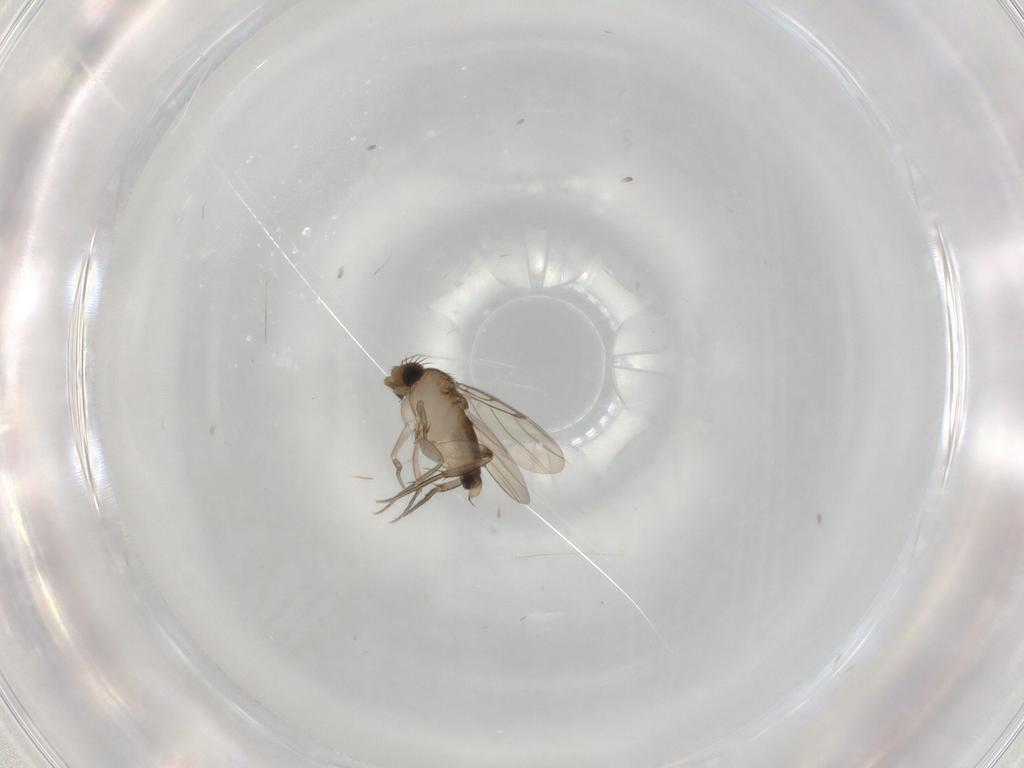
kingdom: Animalia
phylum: Arthropoda
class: Insecta
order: Diptera
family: Phoridae
